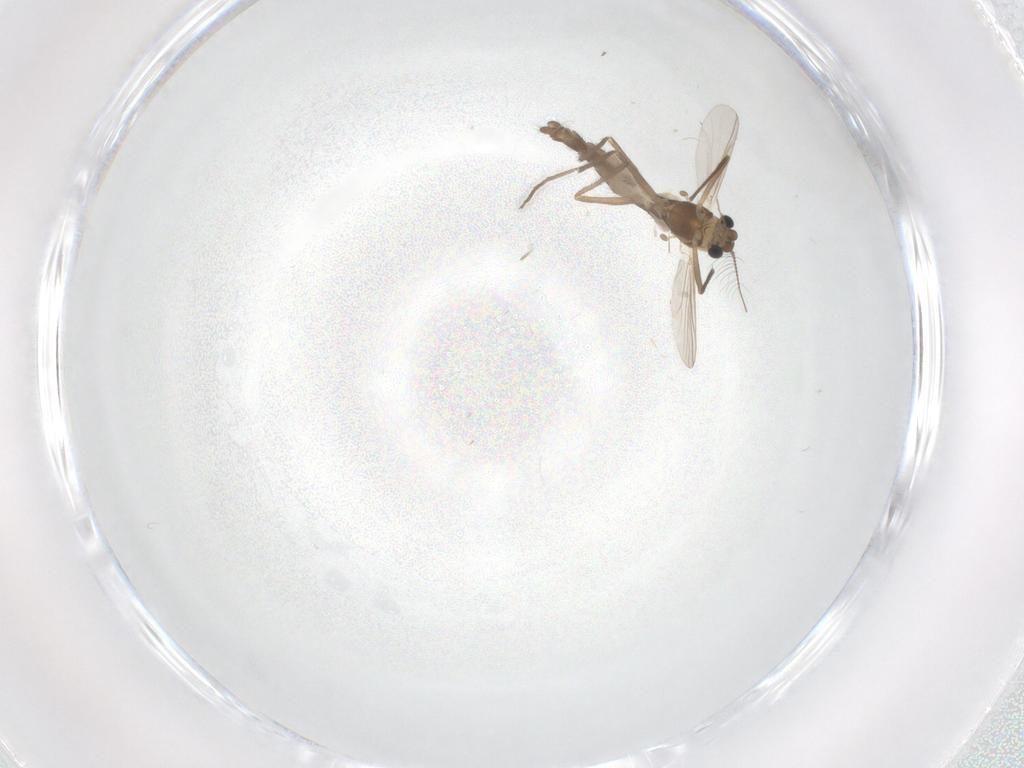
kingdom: Animalia
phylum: Arthropoda
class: Insecta
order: Diptera
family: Chironomidae
